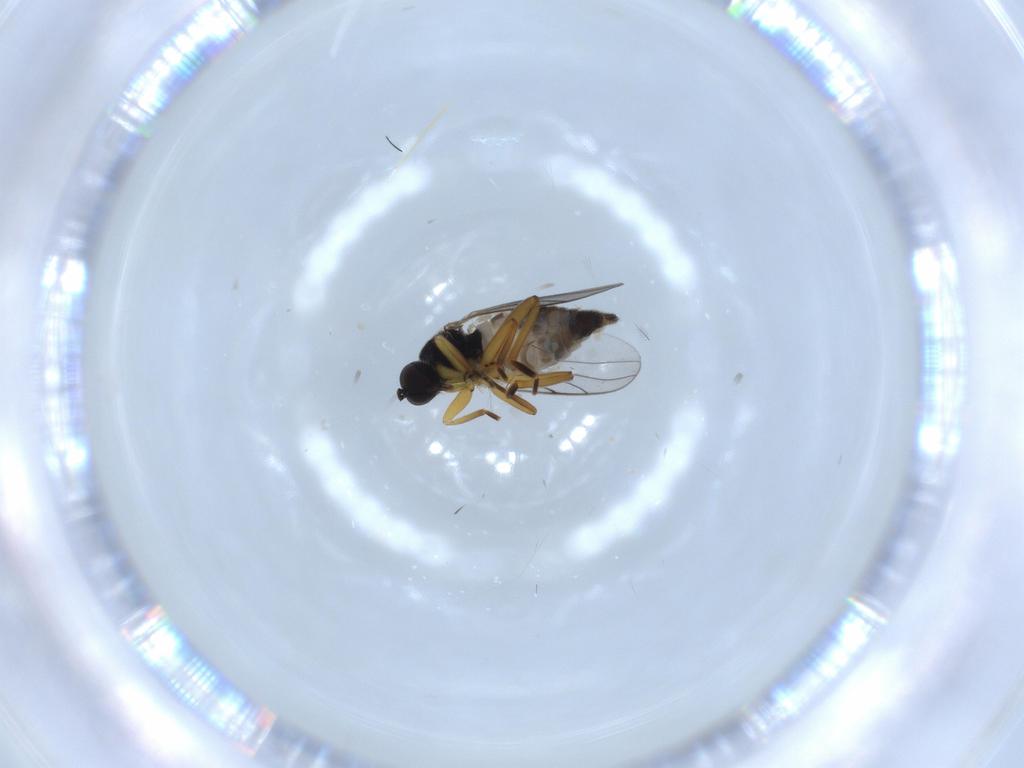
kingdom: Animalia
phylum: Arthropoda
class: Insecta
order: Diptera
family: Hybotidae
